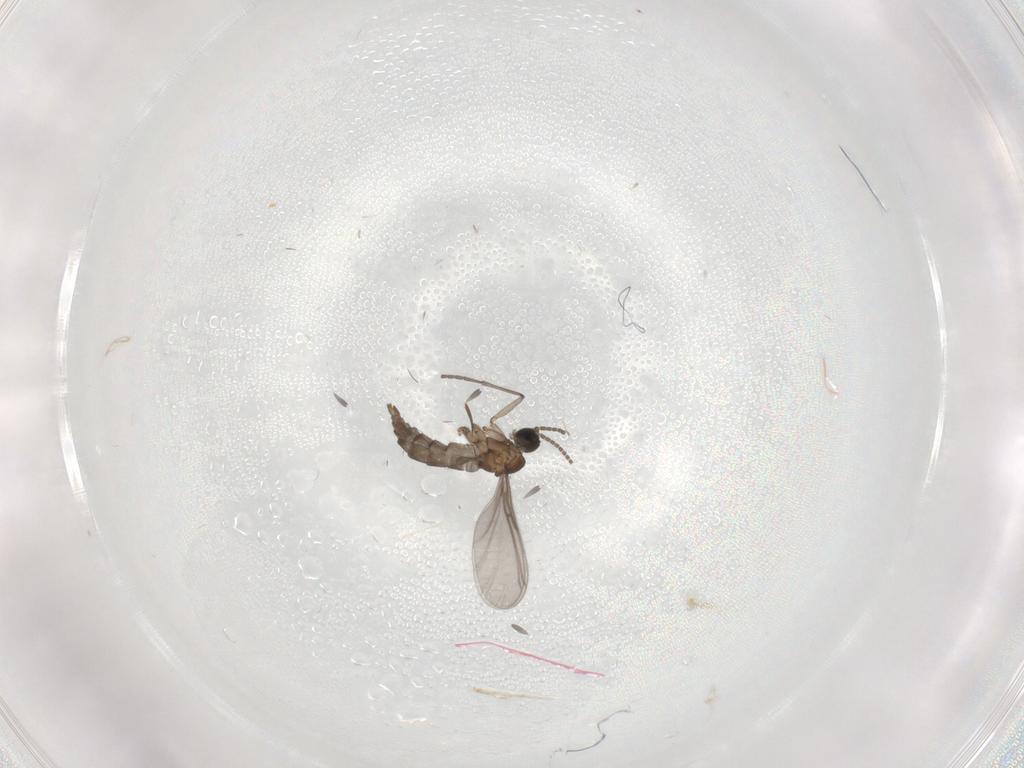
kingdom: Animalia
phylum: Arthropoda
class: Insecta
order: Diptera
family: Sciaridae
